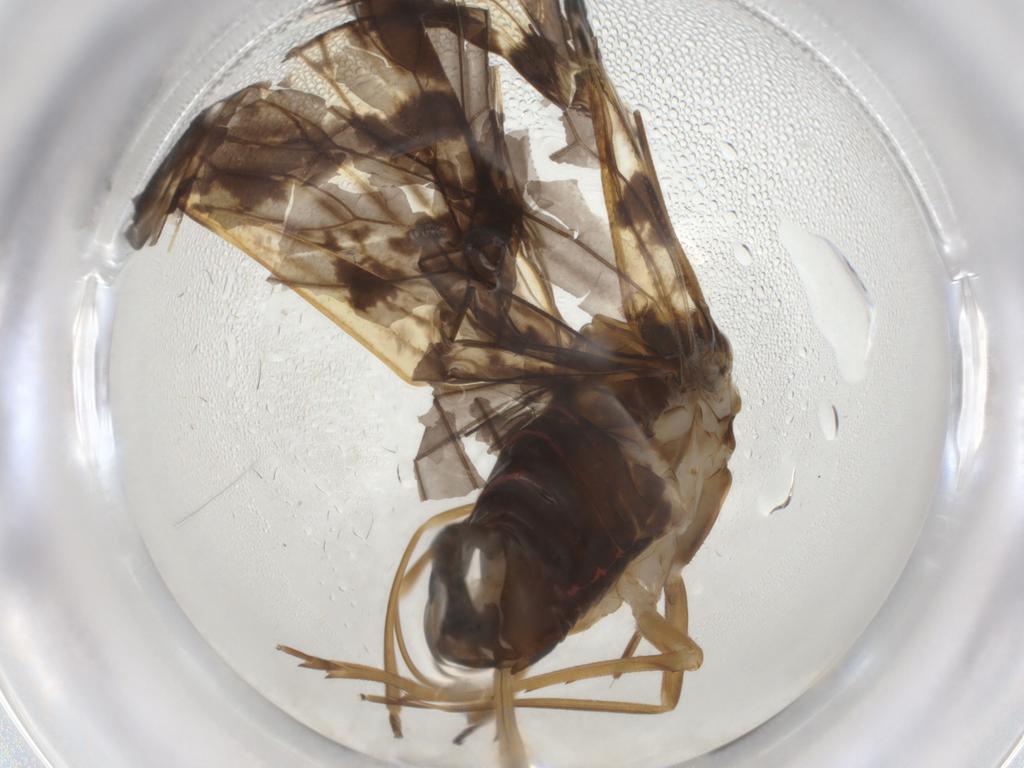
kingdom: Animalia
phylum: Arthropoda
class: Insecta
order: Hemiptera
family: Cixiidae
